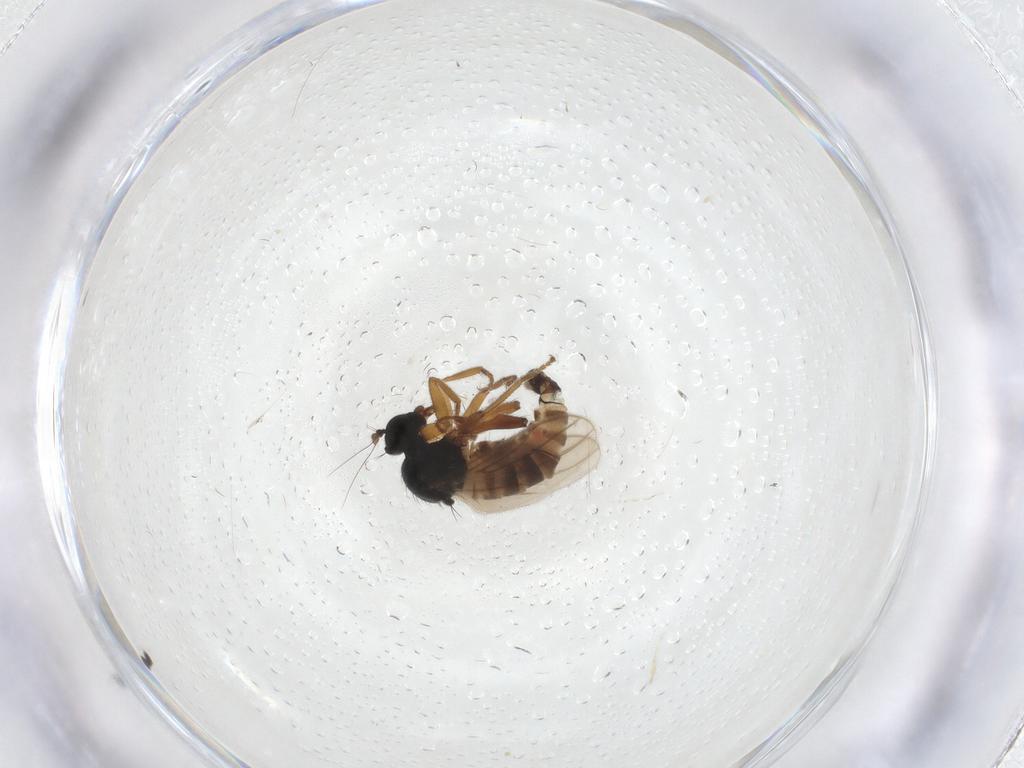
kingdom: Animalia
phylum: Arthropoda
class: Insecta
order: Diptera
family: Hybotidae
